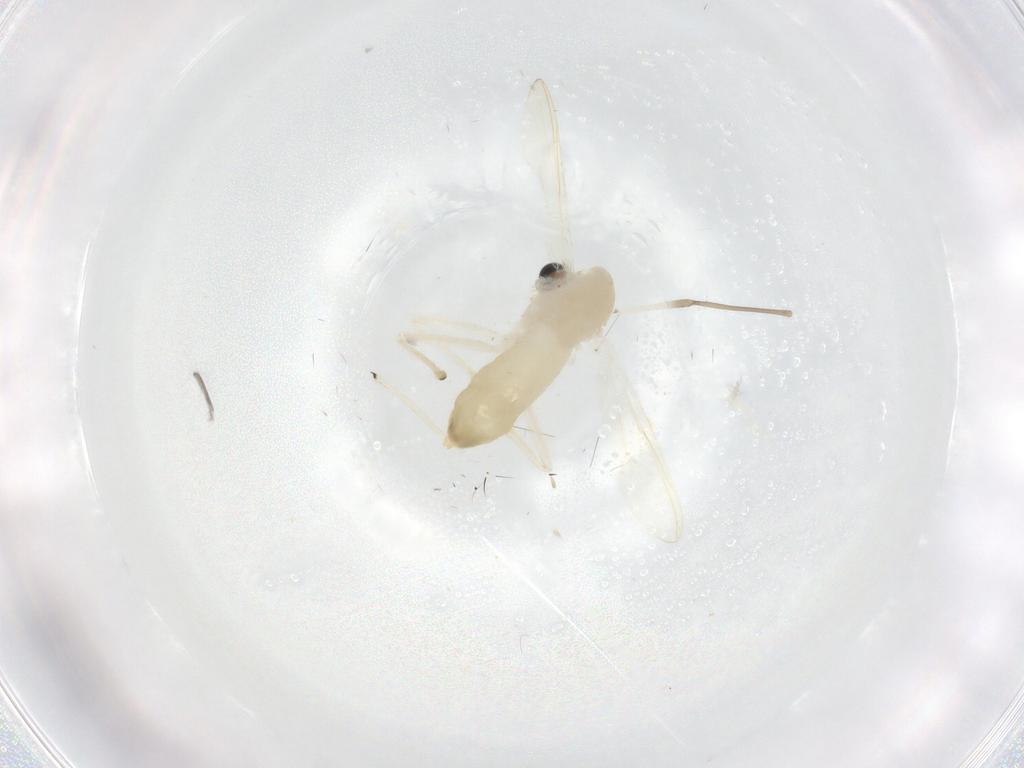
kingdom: Animalia
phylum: Arthropoda
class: Insecta
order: Diptera
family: Chironomidae
